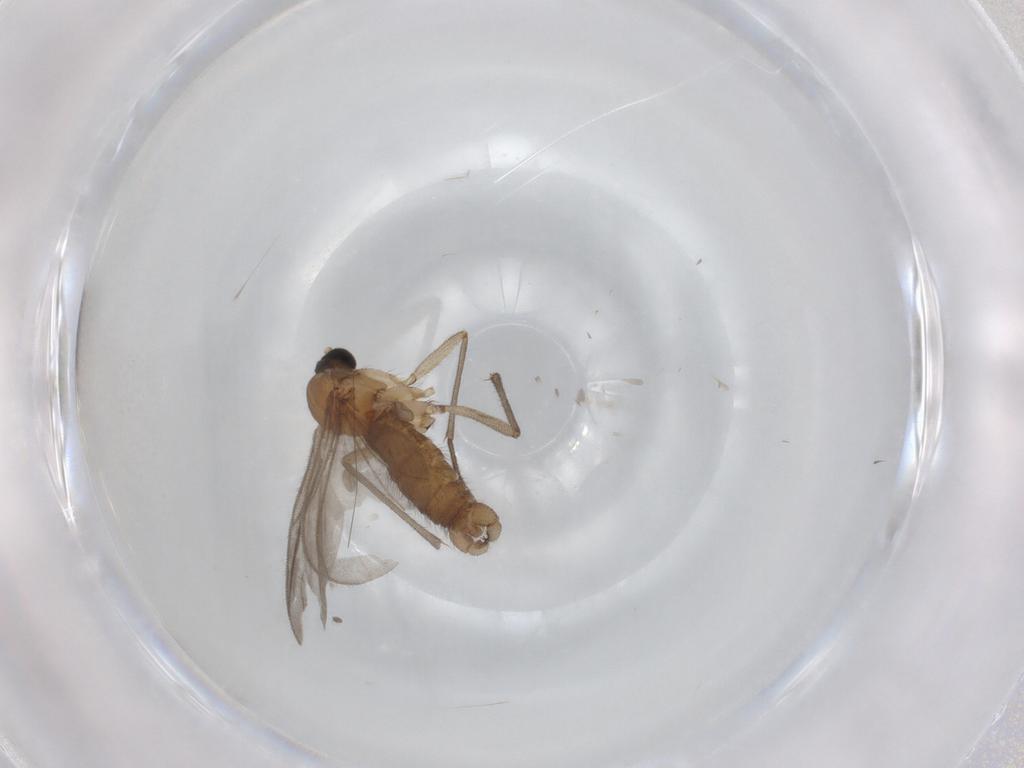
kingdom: Animalia
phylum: Arthropoda
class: Insecta
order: Diptera
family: Sciaridae
